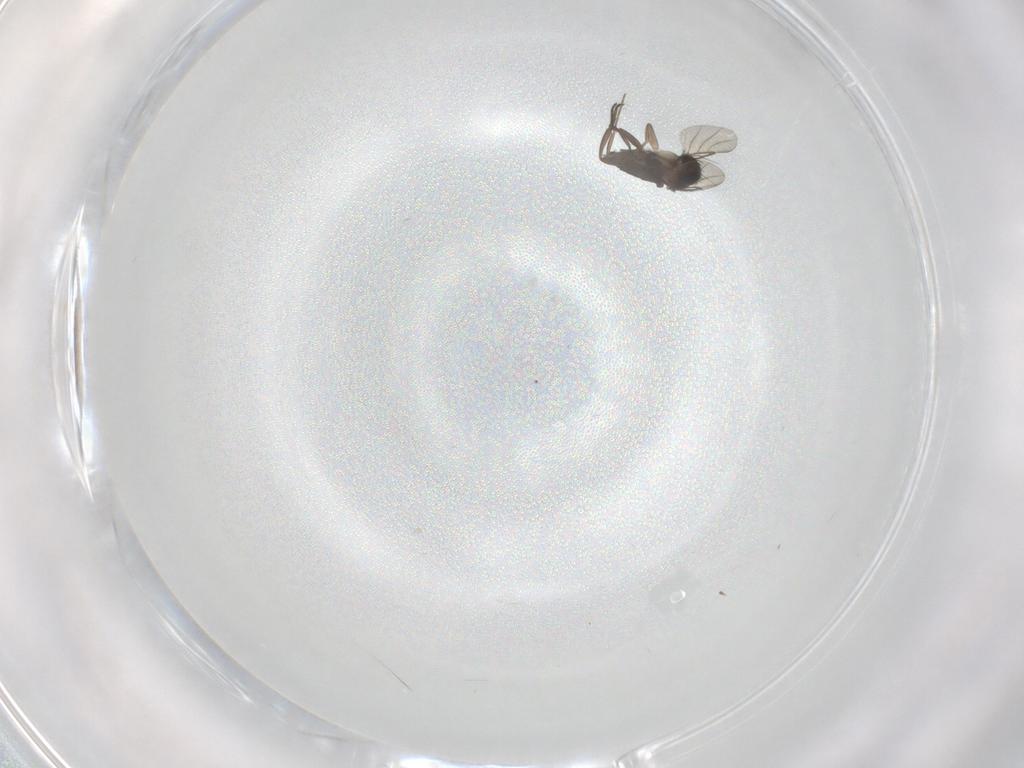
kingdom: Animalia
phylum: Arthropoda
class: Insecta
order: Diptera
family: Phoridae
